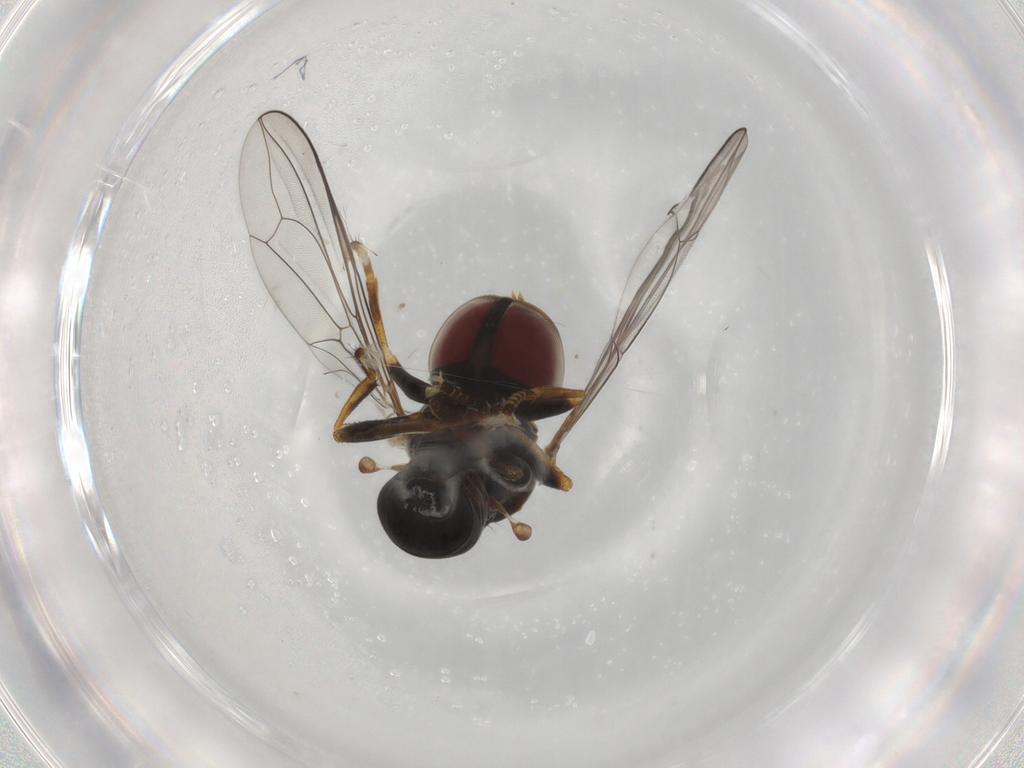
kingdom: Animalia
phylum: Arthropoda
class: Insecta
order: Diptera
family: Pipunculidae
